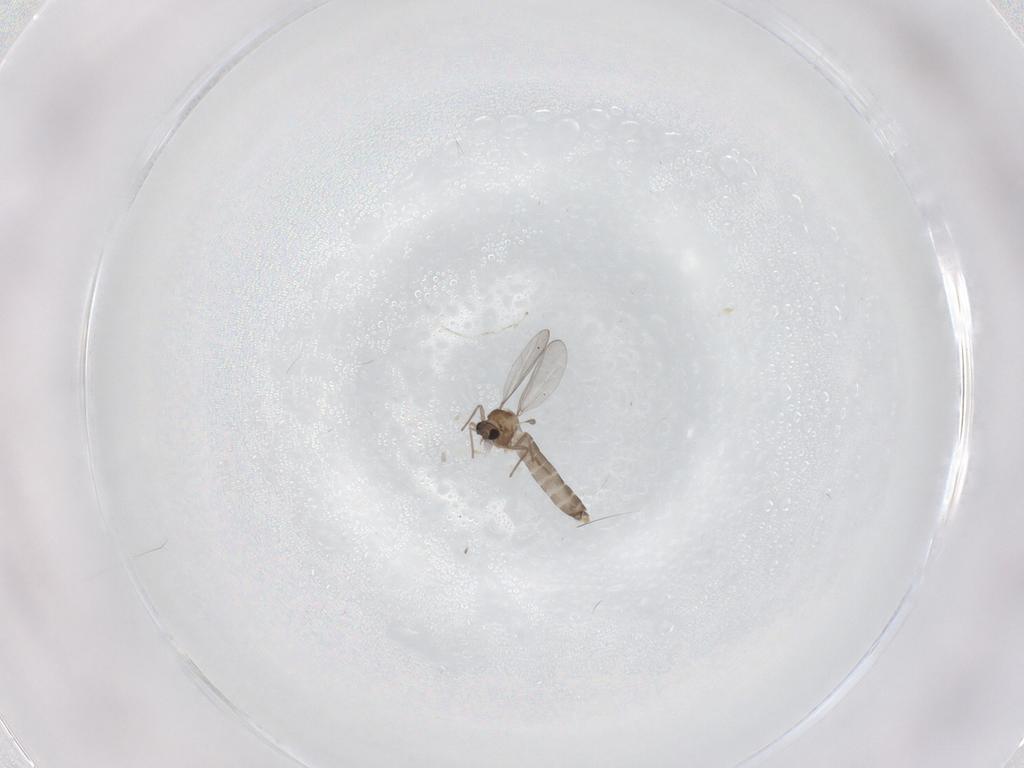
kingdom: Animalia
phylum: Arthropoda
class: Insecta
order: Diptera
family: Chironomidae
